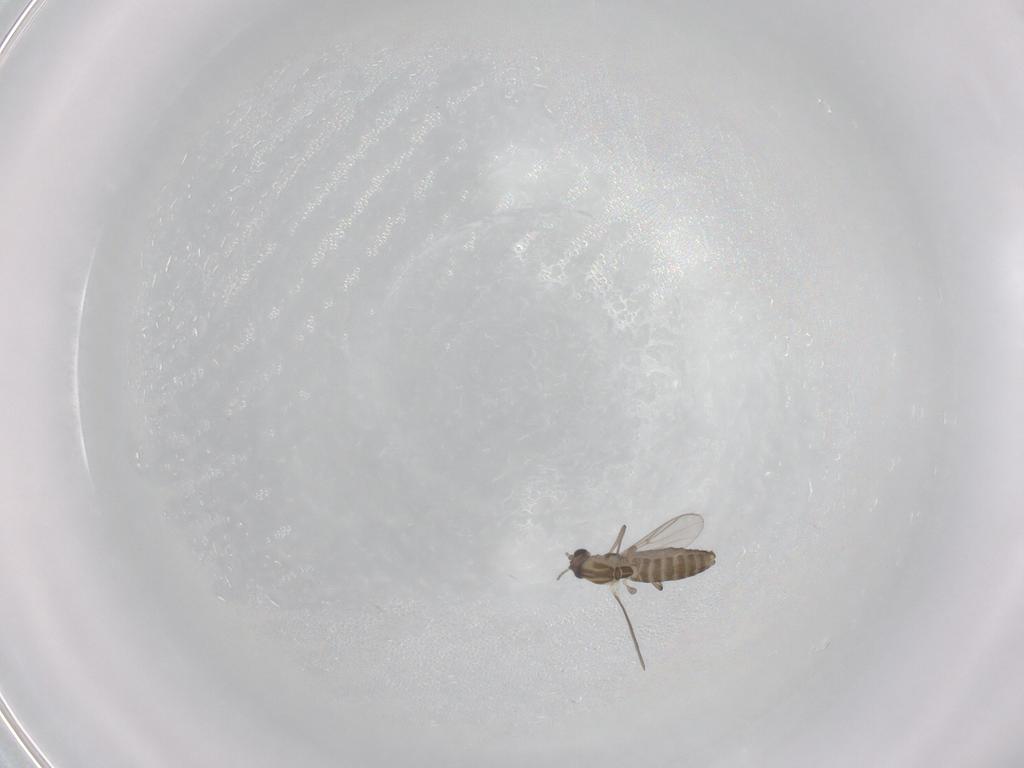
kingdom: Animalia
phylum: Arthropoda
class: Insecta
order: Diptera
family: Chironomidae
